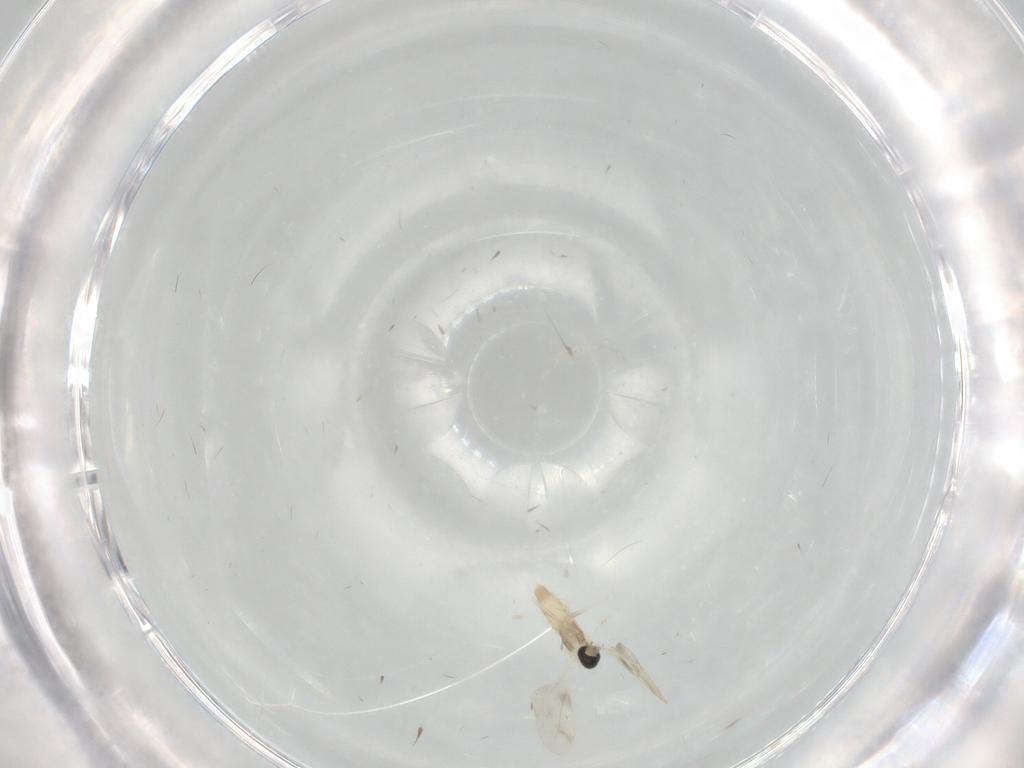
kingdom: Animalia
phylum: Arthropoda
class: Insecta
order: Diptera
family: Cecidomyiidae
